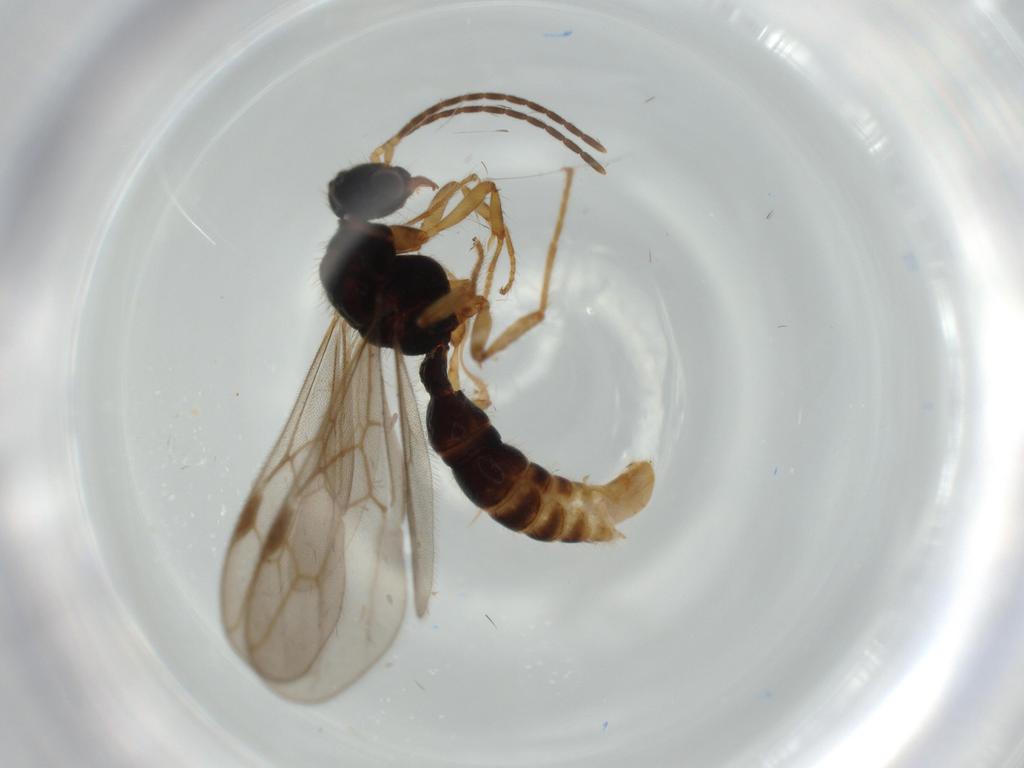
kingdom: Animalia
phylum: Arthropoda
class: Insecta
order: Hymenoptera
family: Formicidae
